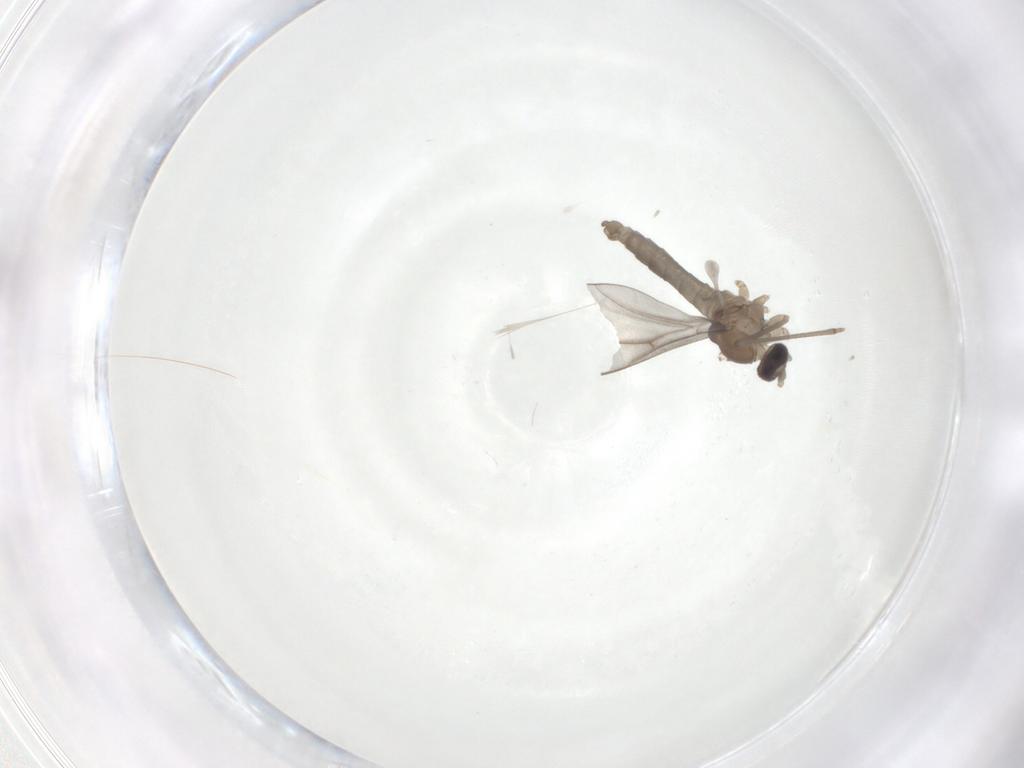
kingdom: Animalia
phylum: Arthropoda
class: Insecta
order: Diptera
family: Cecidomyiidae
